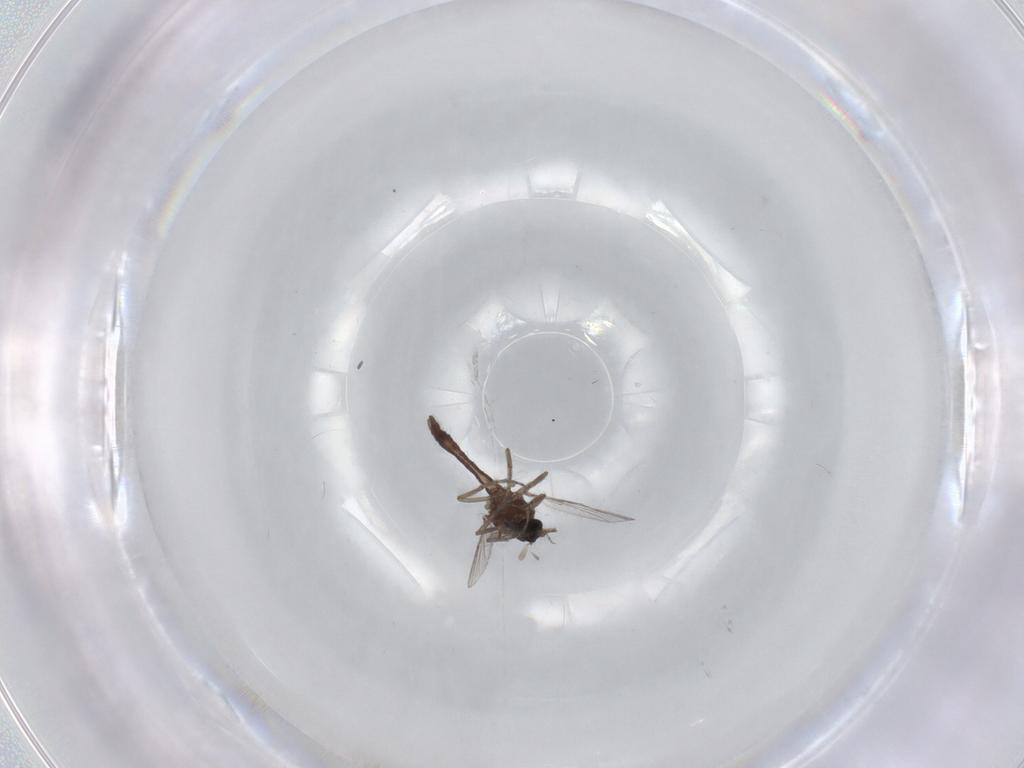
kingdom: Animalia
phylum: Arthropoda
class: Insecta
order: Diptera
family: Ceratopogonidae
